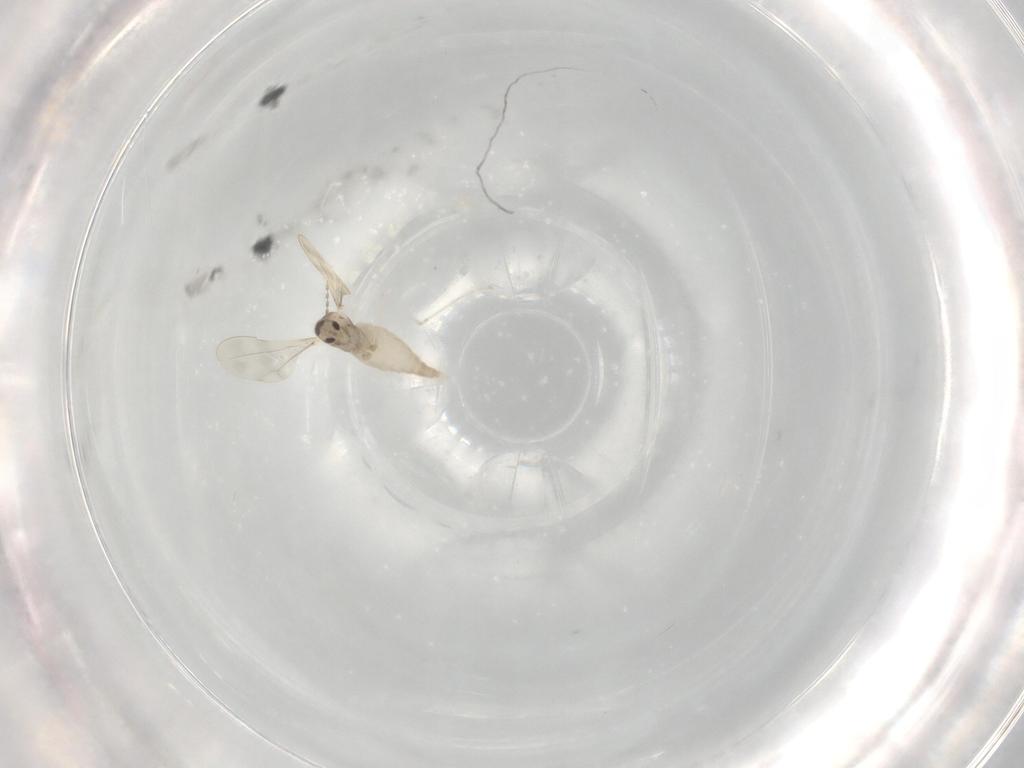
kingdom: Animalia
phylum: Arthropoda
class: Insecta
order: Diptera
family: Cecidomyiidae
